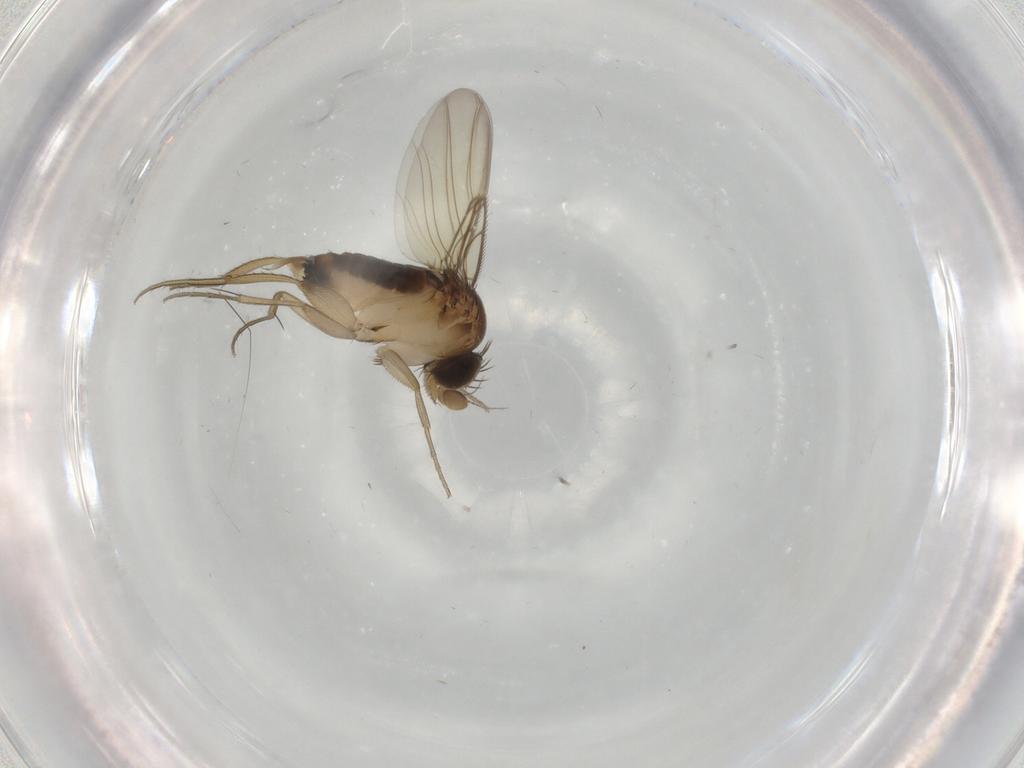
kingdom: Animalia
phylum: Arthropoda
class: Insecta
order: Diptera
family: Phoridae
